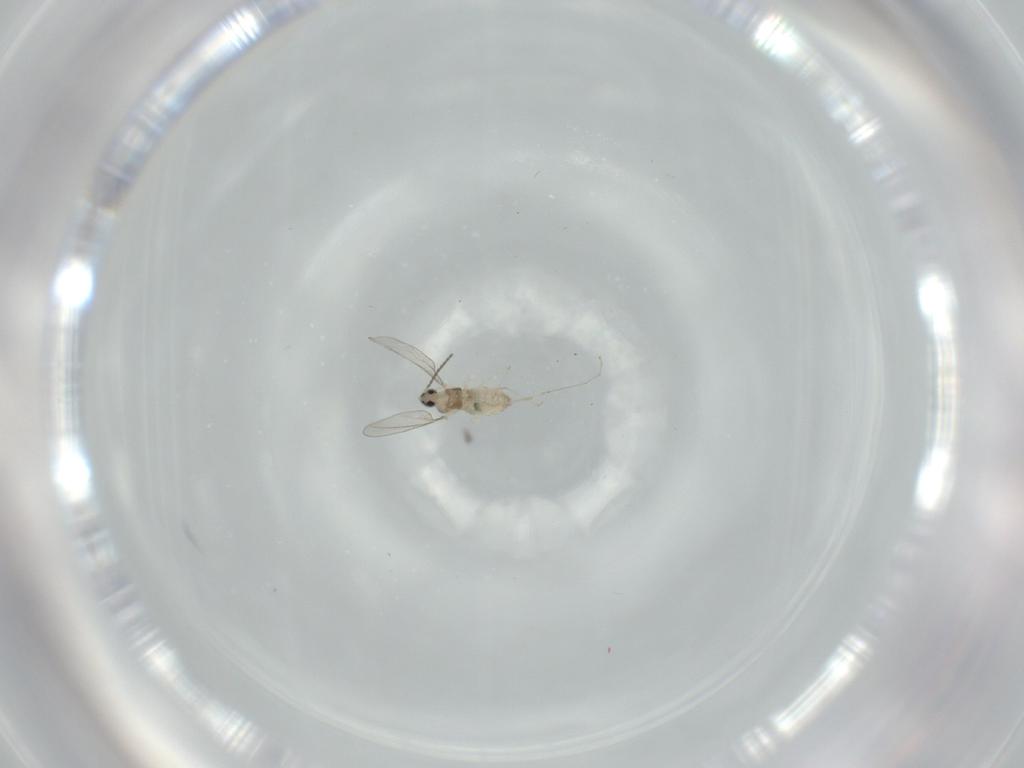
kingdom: Animalia
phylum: Arthropoda
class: Insecta
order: Diptera
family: Cecidomyiidae
